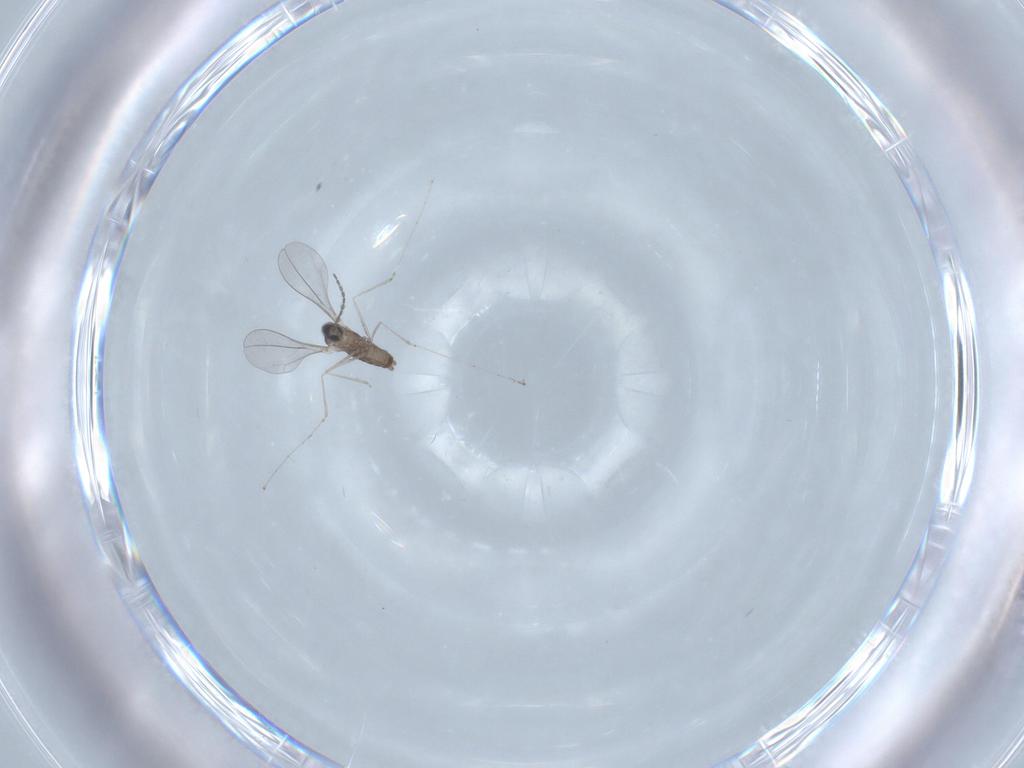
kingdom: Animalia
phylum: Arthropoda
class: Insecta
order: Diptera
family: Cecidomyiidae
